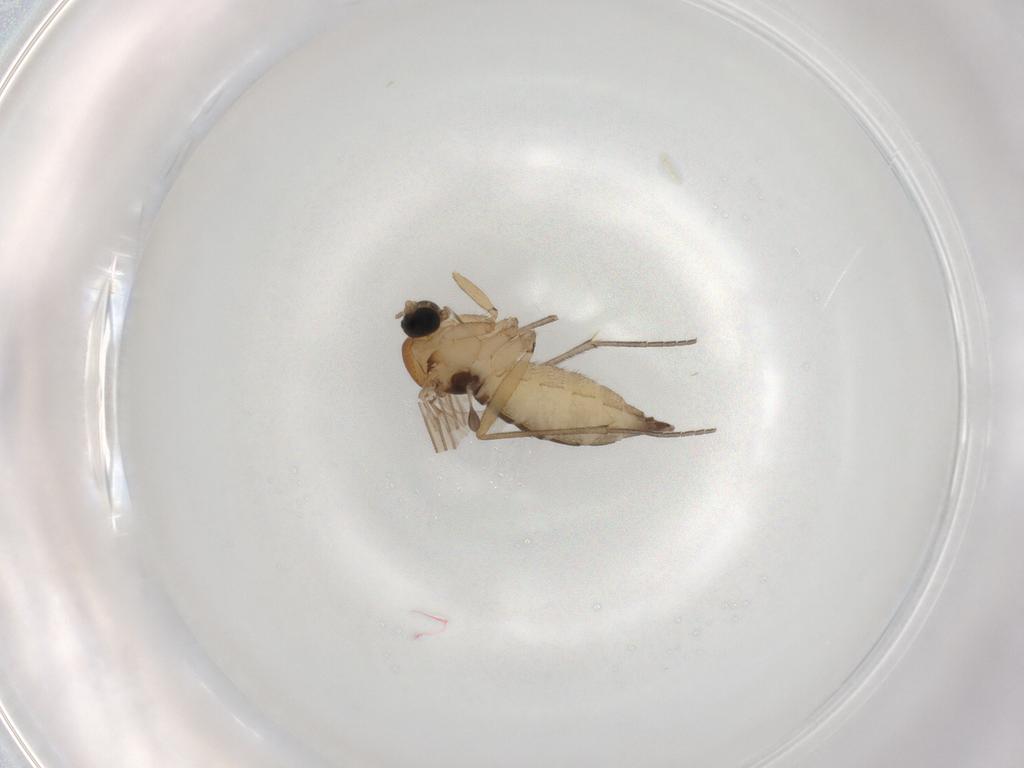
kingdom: Animalia
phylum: Arthropoda
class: Insecta
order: Diptera
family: Sciaridae
